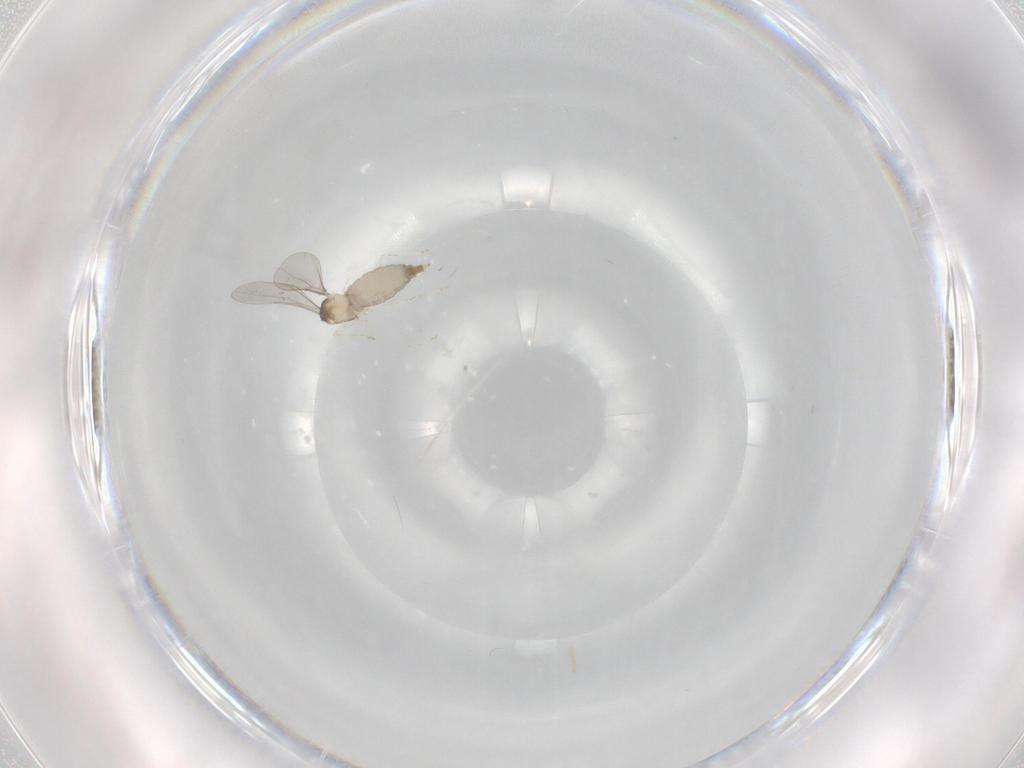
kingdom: Animalia
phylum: Arthropoda
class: Insecta
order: Diptera
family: Cecidomyiidae
